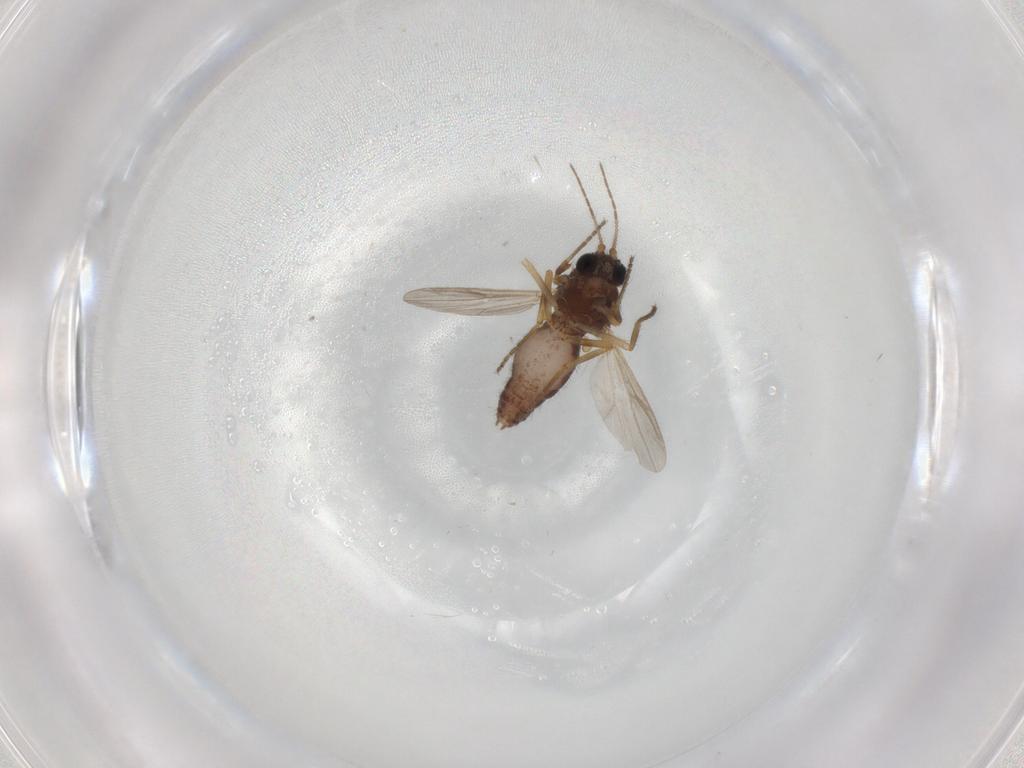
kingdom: Animalia
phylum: Arthropoda
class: Insecta
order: Diptera
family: Ceratopogonidae
